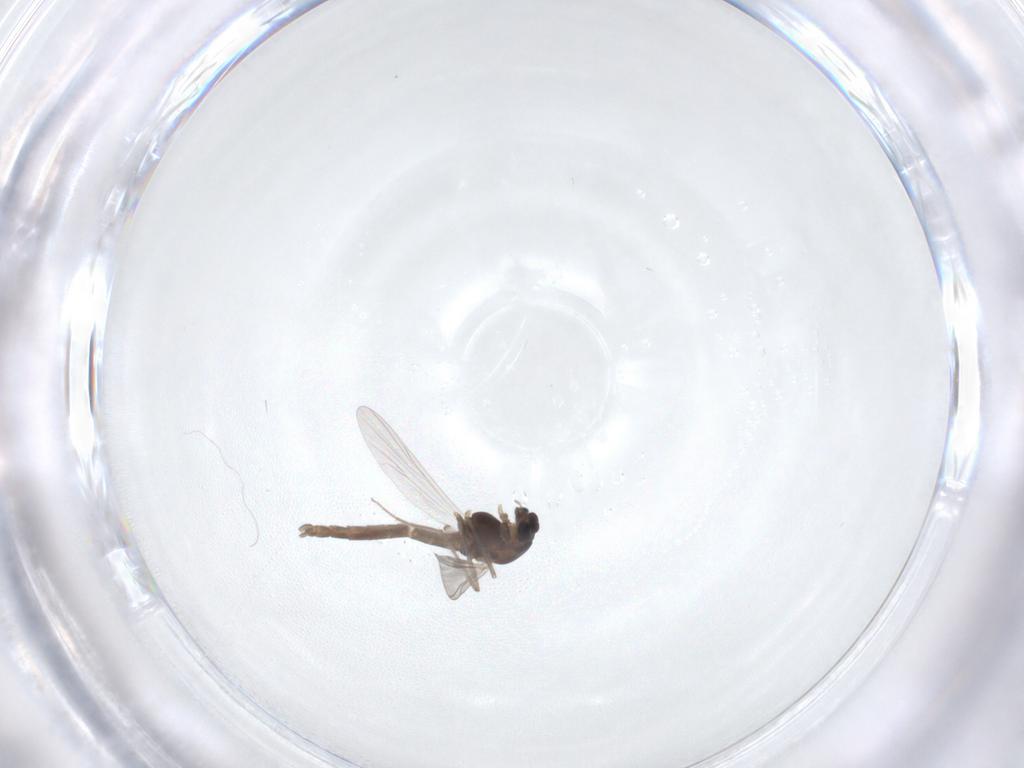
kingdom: Animalia
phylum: Arthropoda
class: Insecta
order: Diptera
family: Chironomidae
